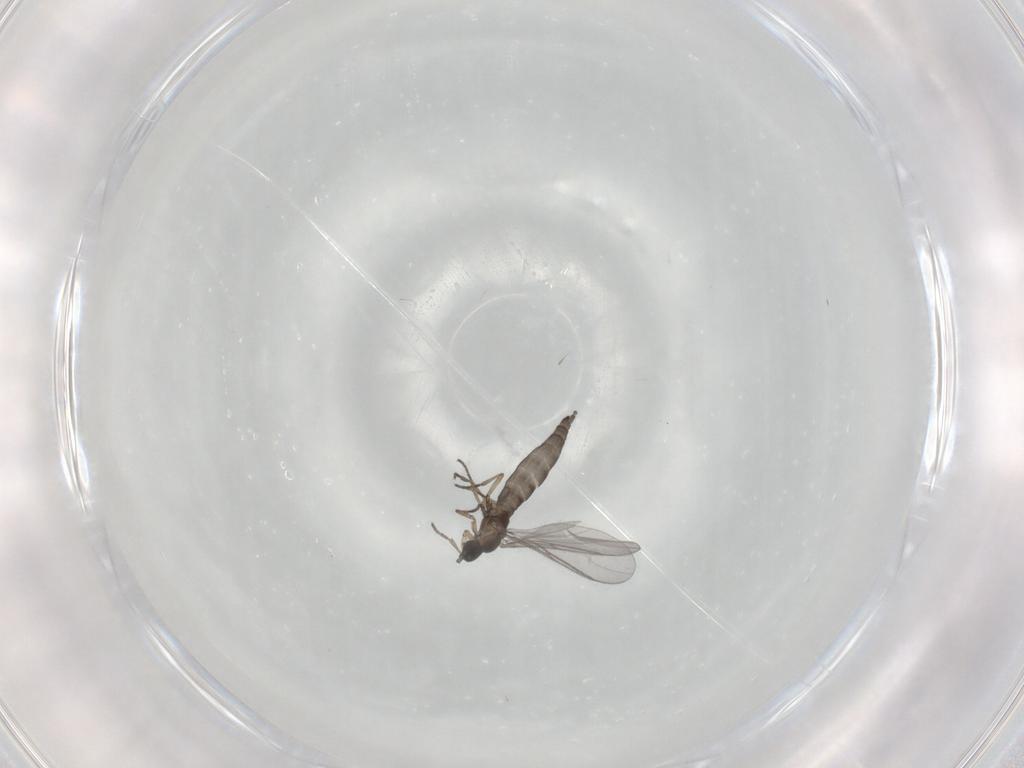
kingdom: Animalia
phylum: Arthropoda
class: Insecta
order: Diptera
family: Sciaridae
